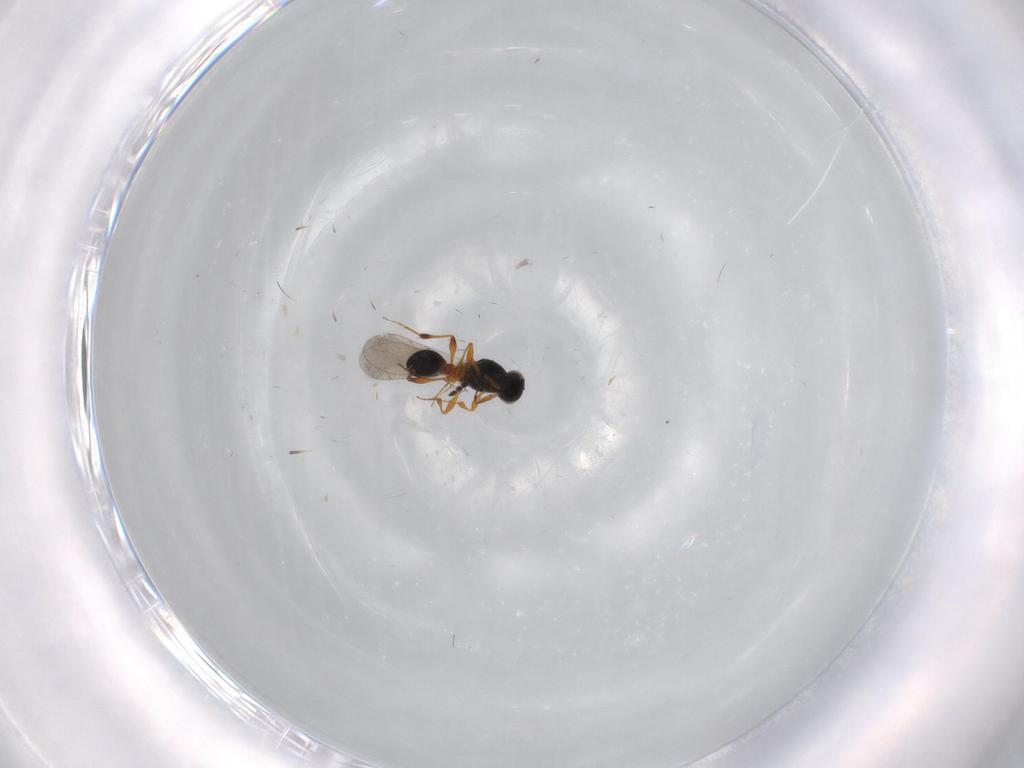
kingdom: Animalia
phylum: Arthropoda
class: Insecta
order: Hymenoptera
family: Platygastridae
